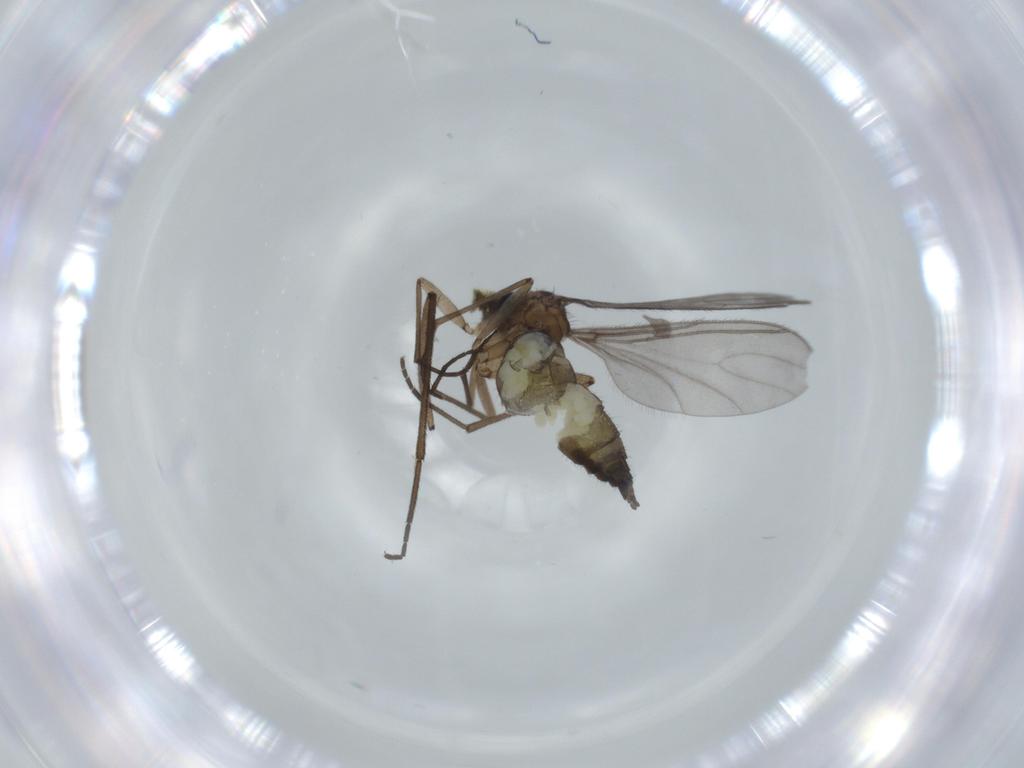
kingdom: Animalia
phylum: Arthropoda
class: Insecta
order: Diptera
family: Sciaridae
